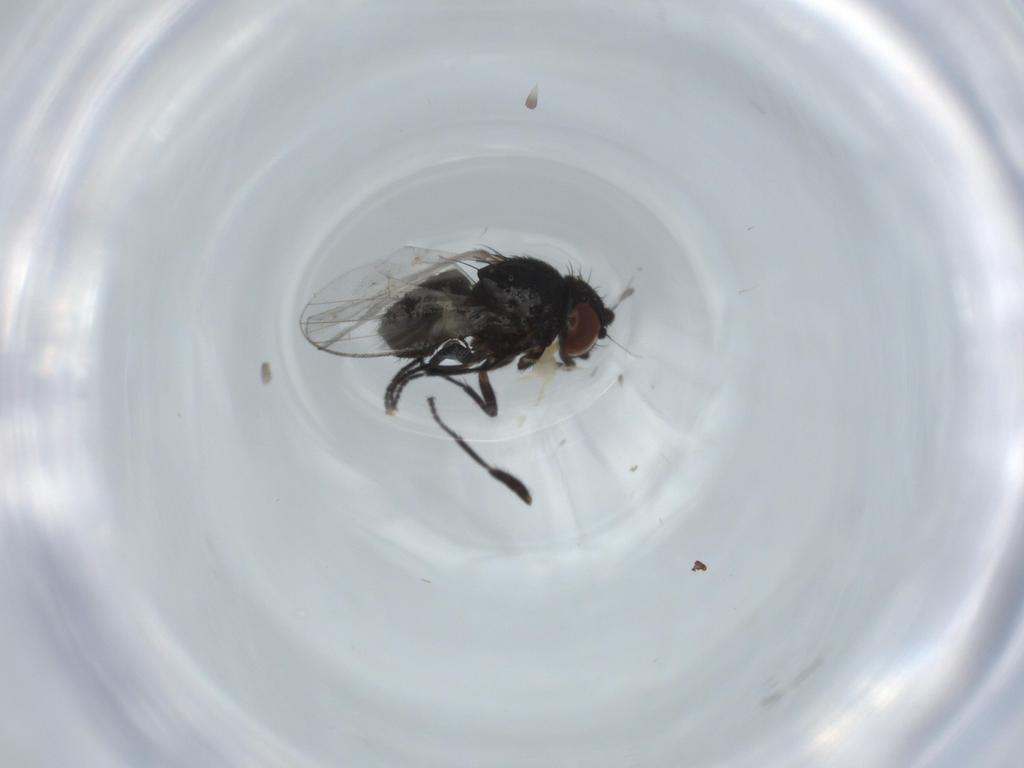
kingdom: Animalia
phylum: Arthropoda
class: Insecta
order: Diptera
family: Milichiidae
